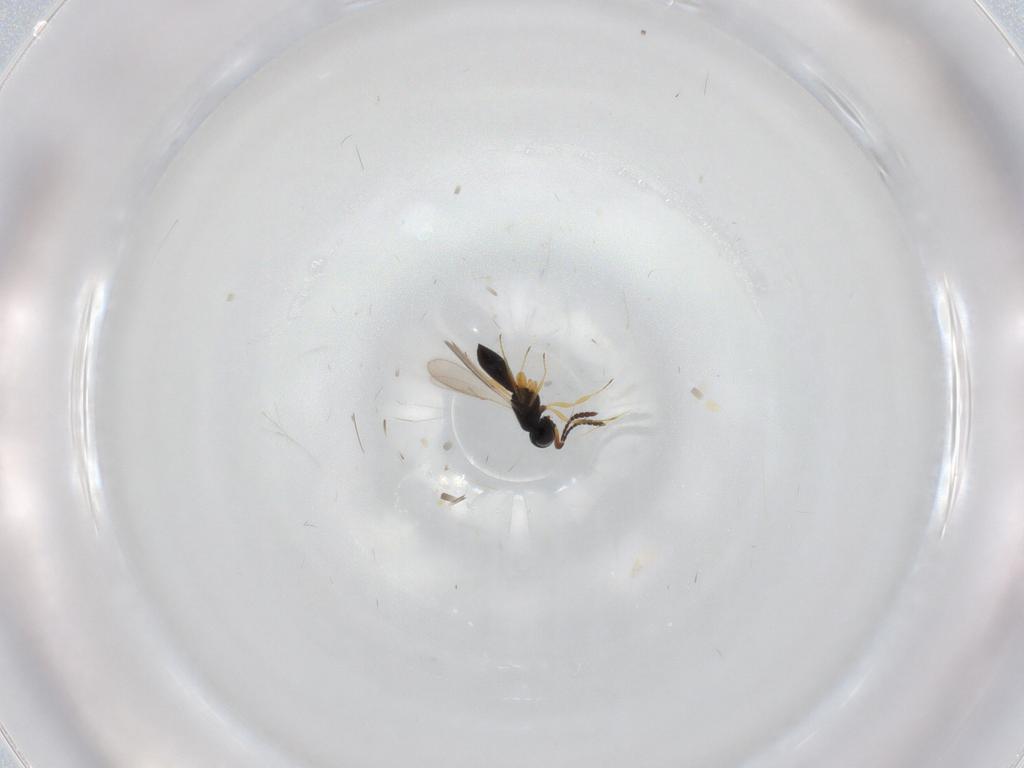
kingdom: Animalia
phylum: Arthropoda
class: Insecta
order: Hymenoptera
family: Scelionidae
